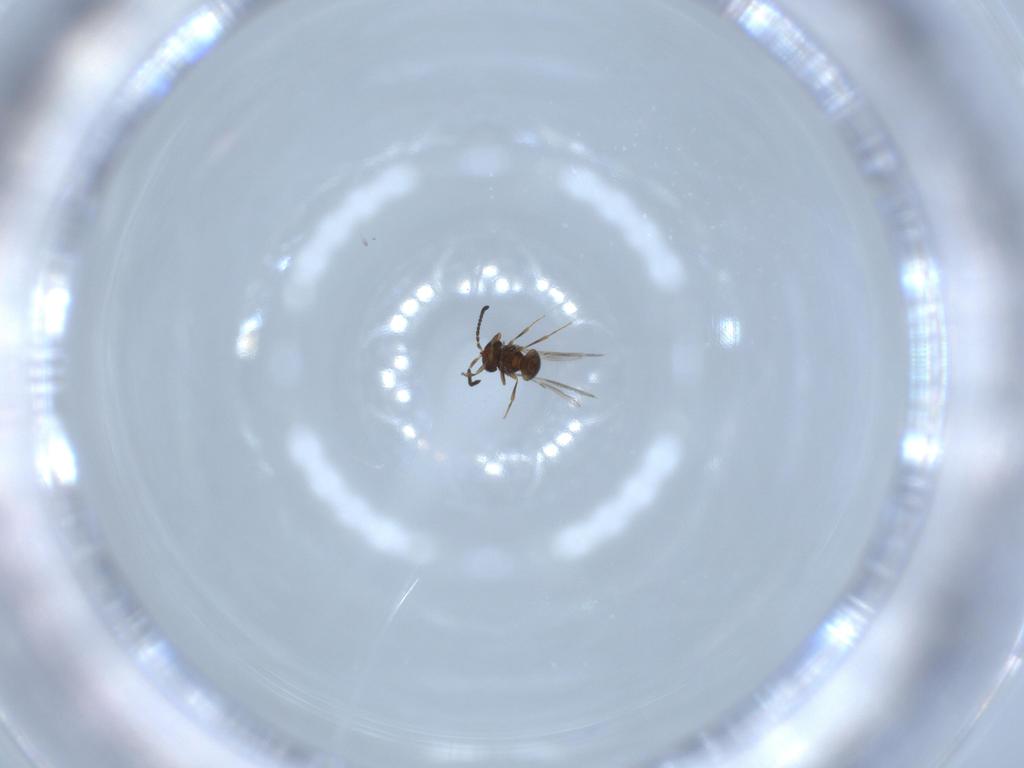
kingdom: Animalia
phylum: Arthropoda
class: Insecta
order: Hymenoptera
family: Scelionidae
